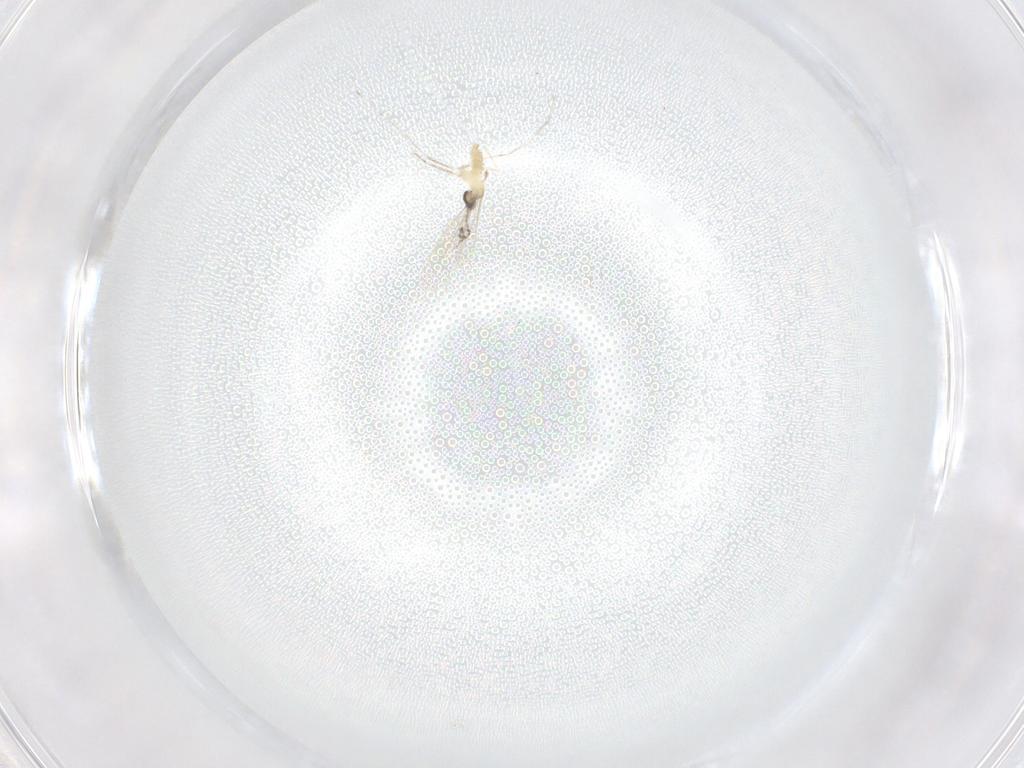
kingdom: Animalia
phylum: Arthropoda
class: Insecta
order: Diptera
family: Cecidomyiidae
